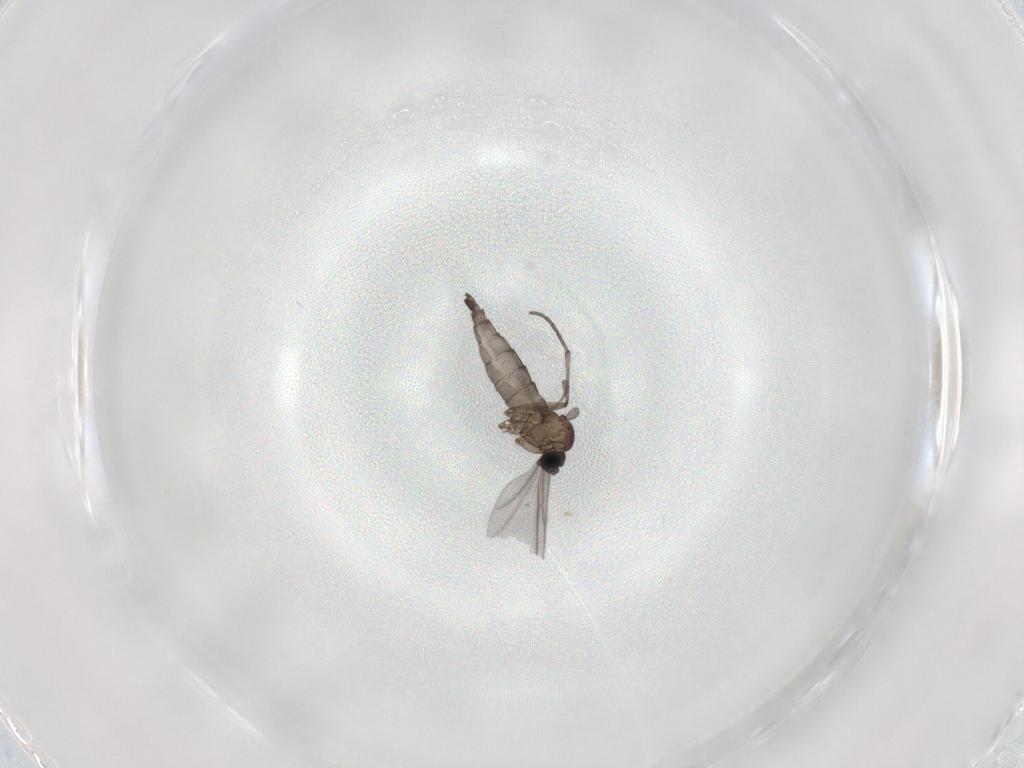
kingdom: Animalia
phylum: Arthropoda
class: Insecta
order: Diptera
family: Sciaridae
